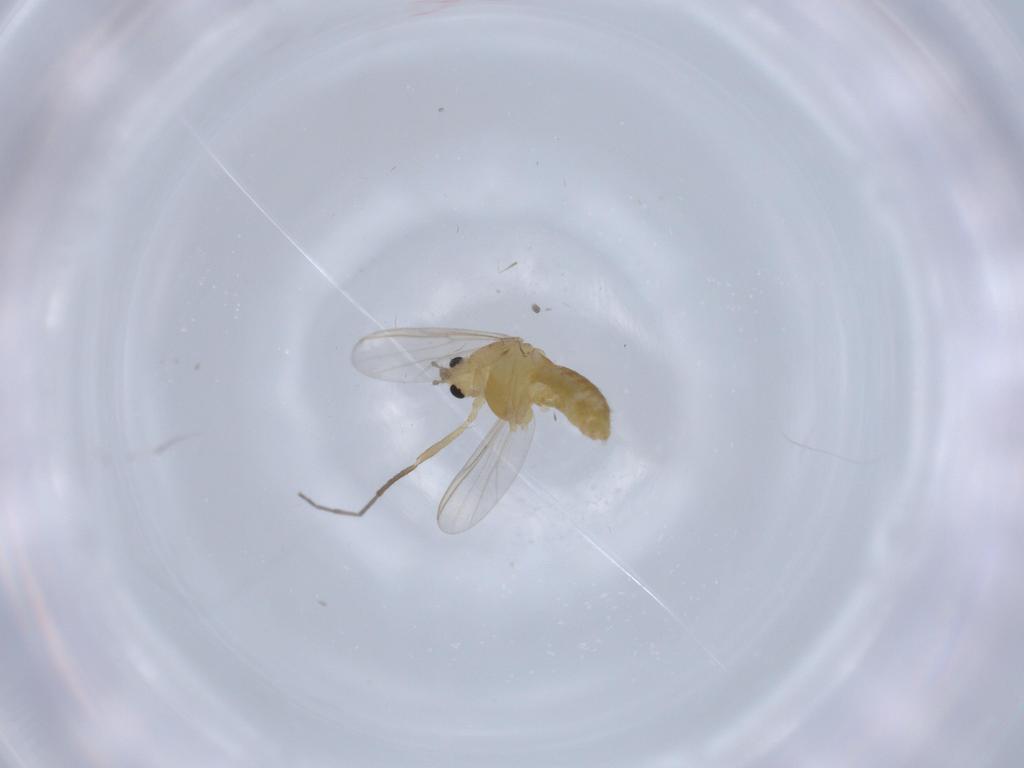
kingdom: Animalia
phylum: Arthropoda
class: Insecta
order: Diptera
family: Chironomidae
